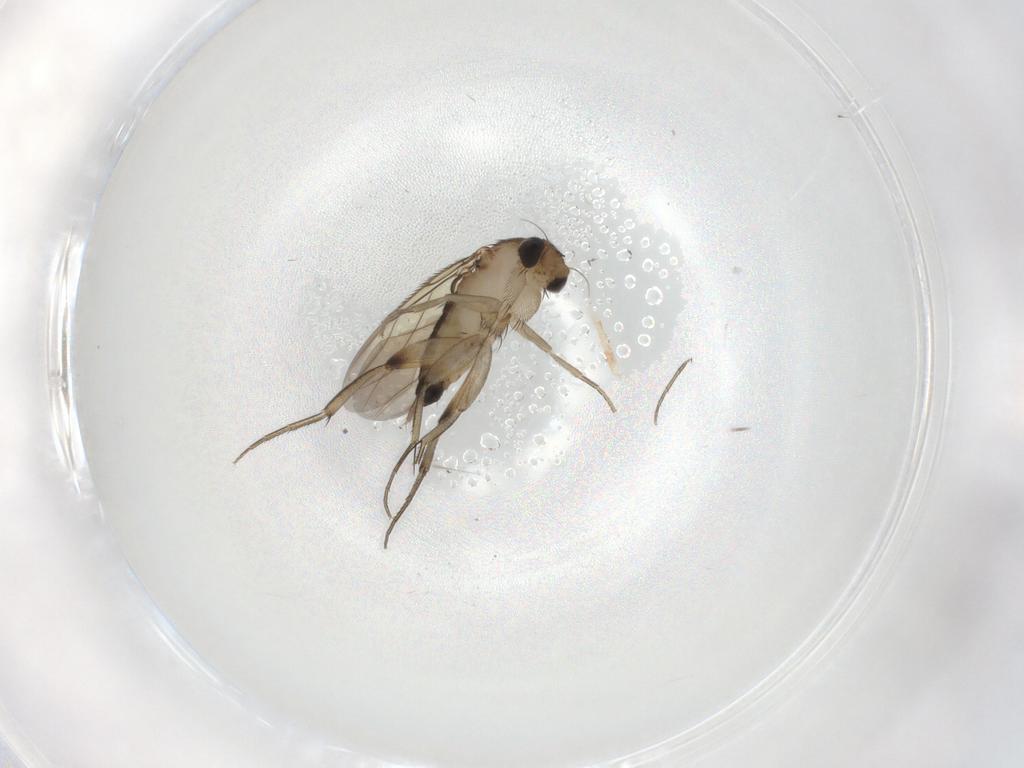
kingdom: Animalia
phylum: Arthropoda
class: Insecta
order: Diptera
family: Phoridae
